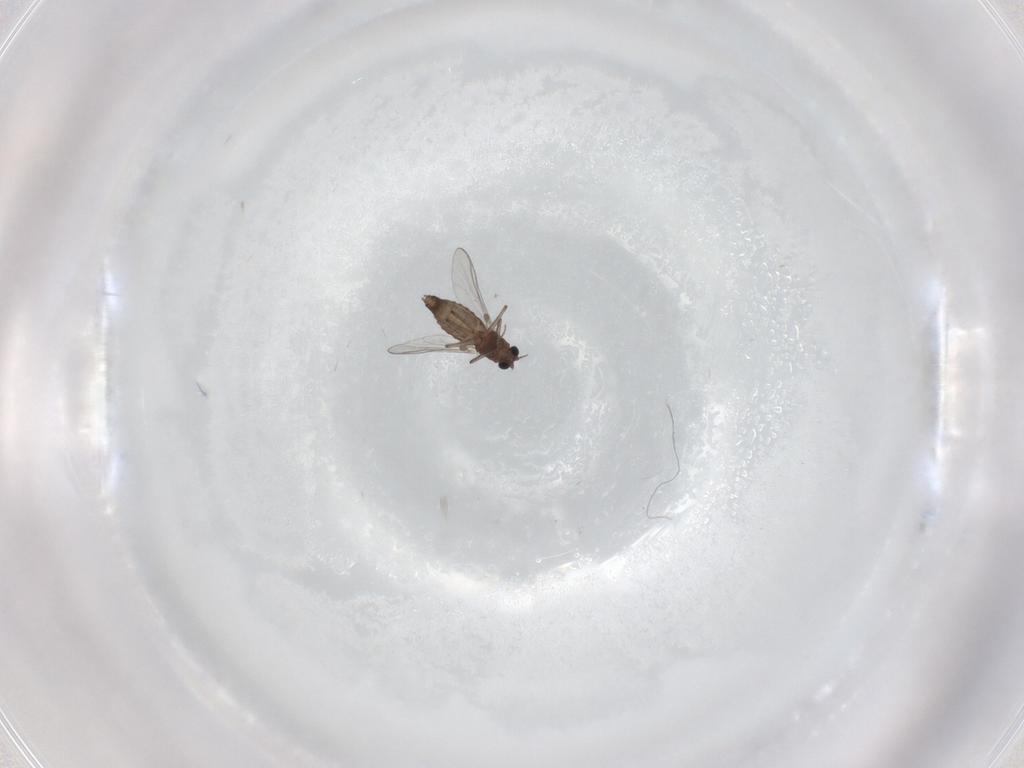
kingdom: Animalia
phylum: Arthropoda
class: Insecta
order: Diptera
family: Chironomidae
